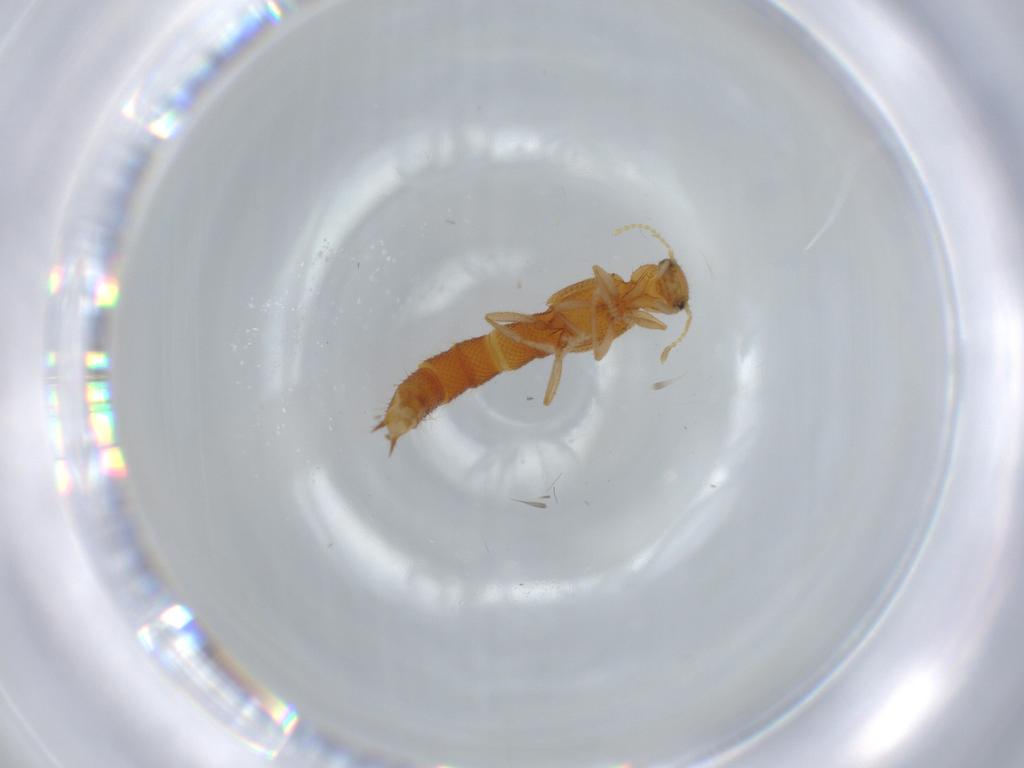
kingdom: Animalia
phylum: Arthropoda
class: Insecta
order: Coleoptera
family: Staphylinidae
